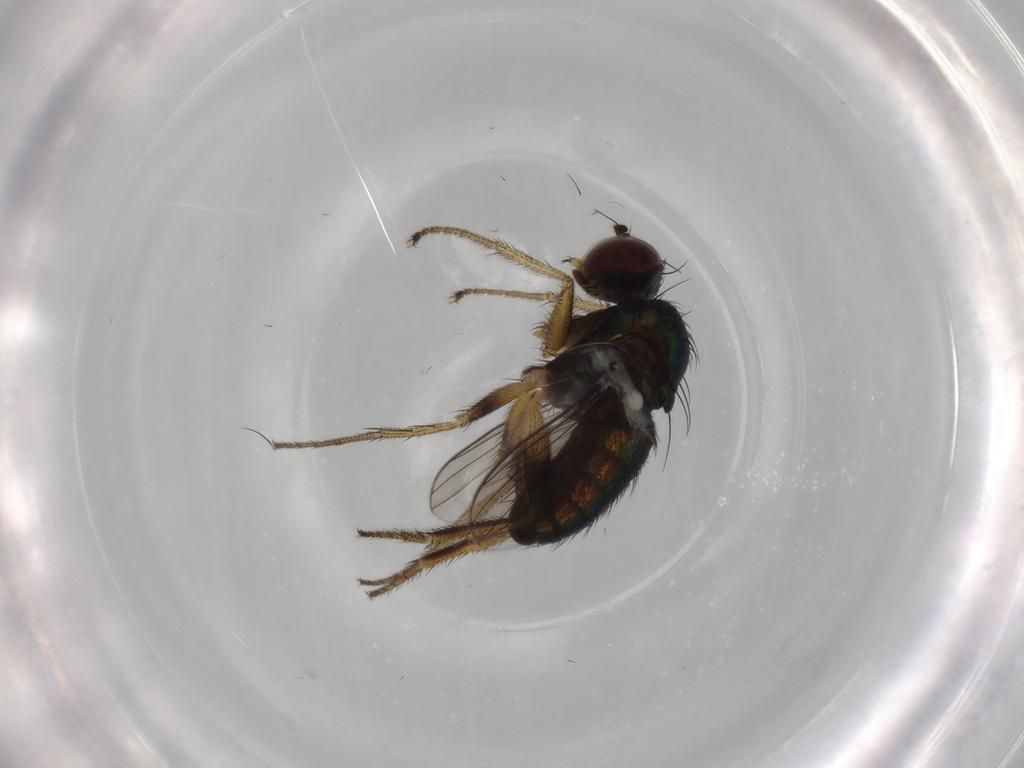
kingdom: Animalia
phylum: Arthropoda
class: Insecta
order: Diptera
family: Dolichopodidae
